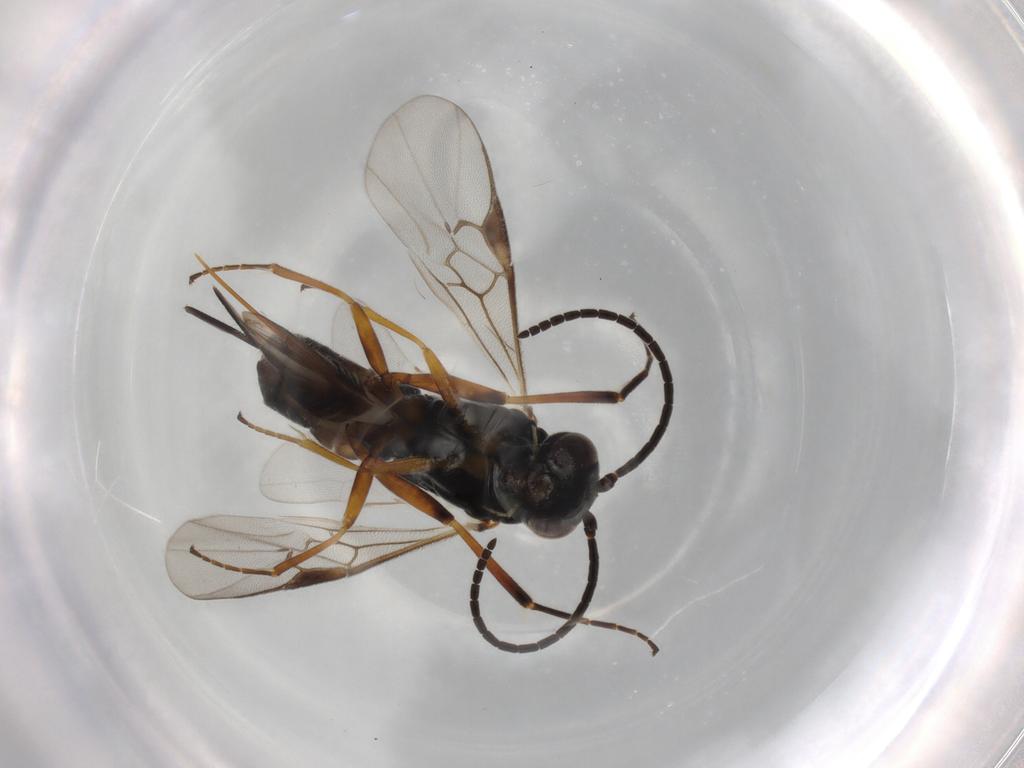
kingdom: Animalia
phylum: Arthropoda
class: Insecta
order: Hymenoptera
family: Braconidae
